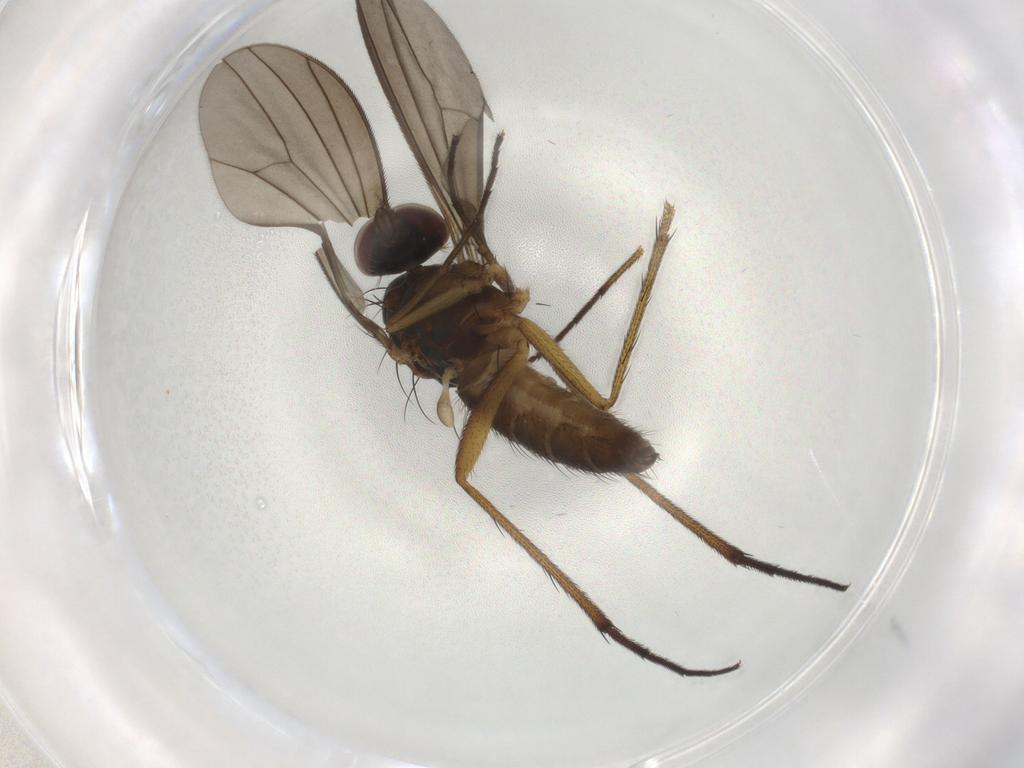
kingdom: Animalia
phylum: Arthropoda
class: Insecta
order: Diptera
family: Dolichopodidae
